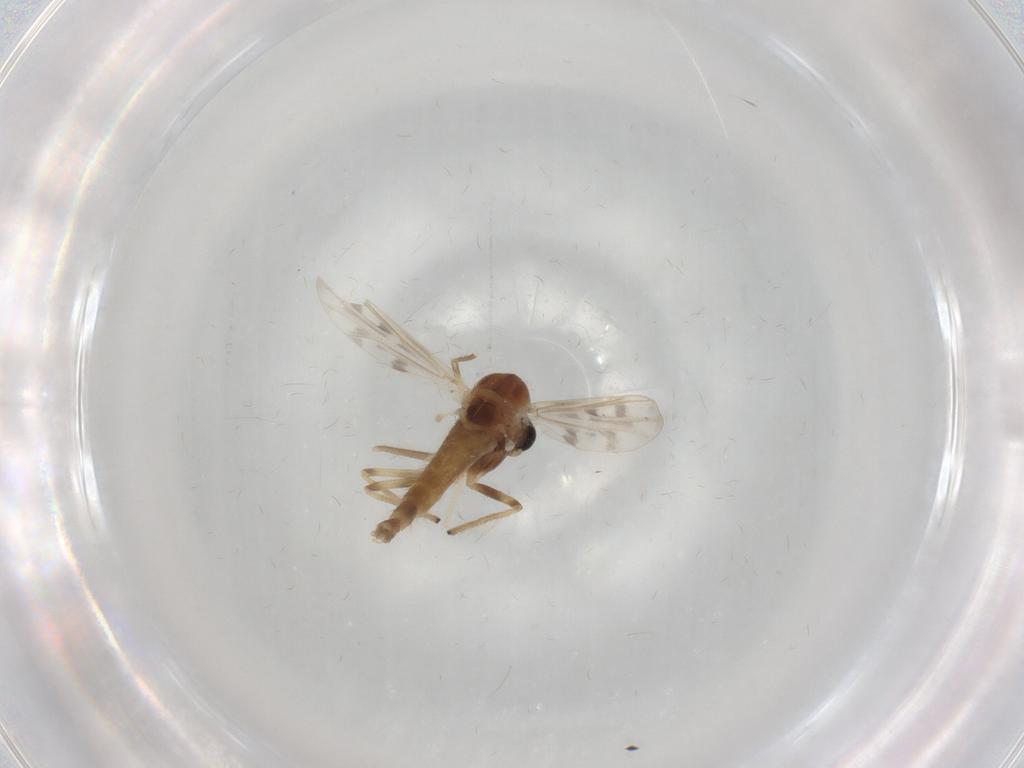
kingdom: Animalia
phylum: Arthropoda
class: Insecta
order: Diptera
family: Chironomidae
